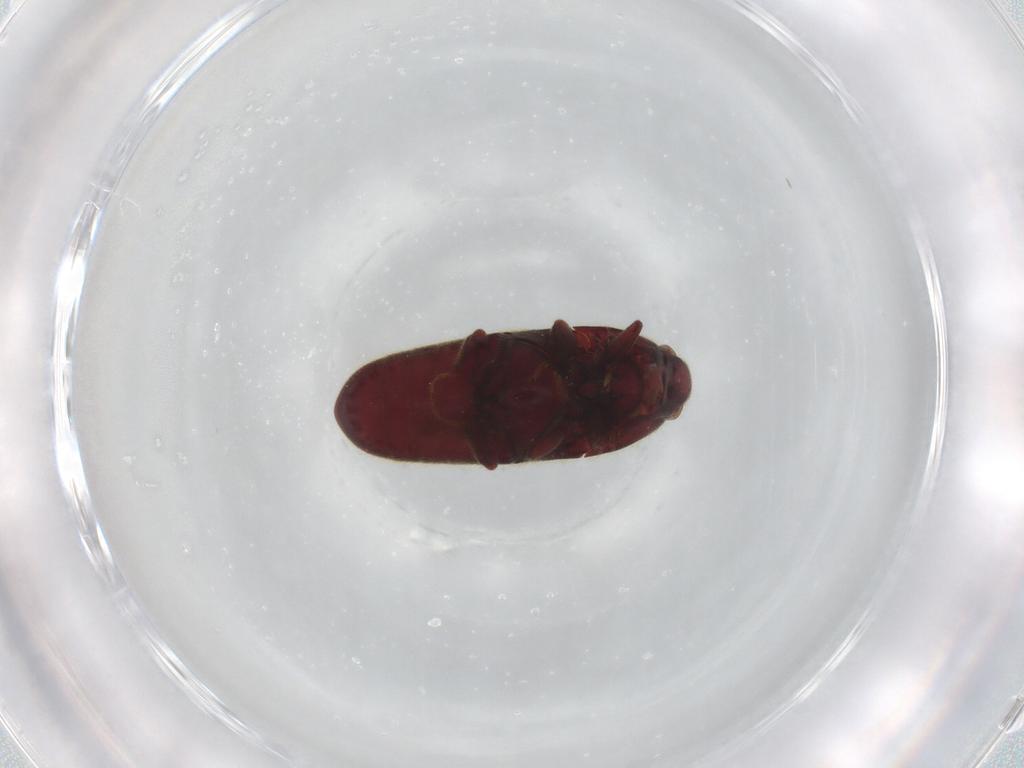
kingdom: Animalia
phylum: Arthropoda
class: Insecta
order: Coleoptera
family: Throscidae
